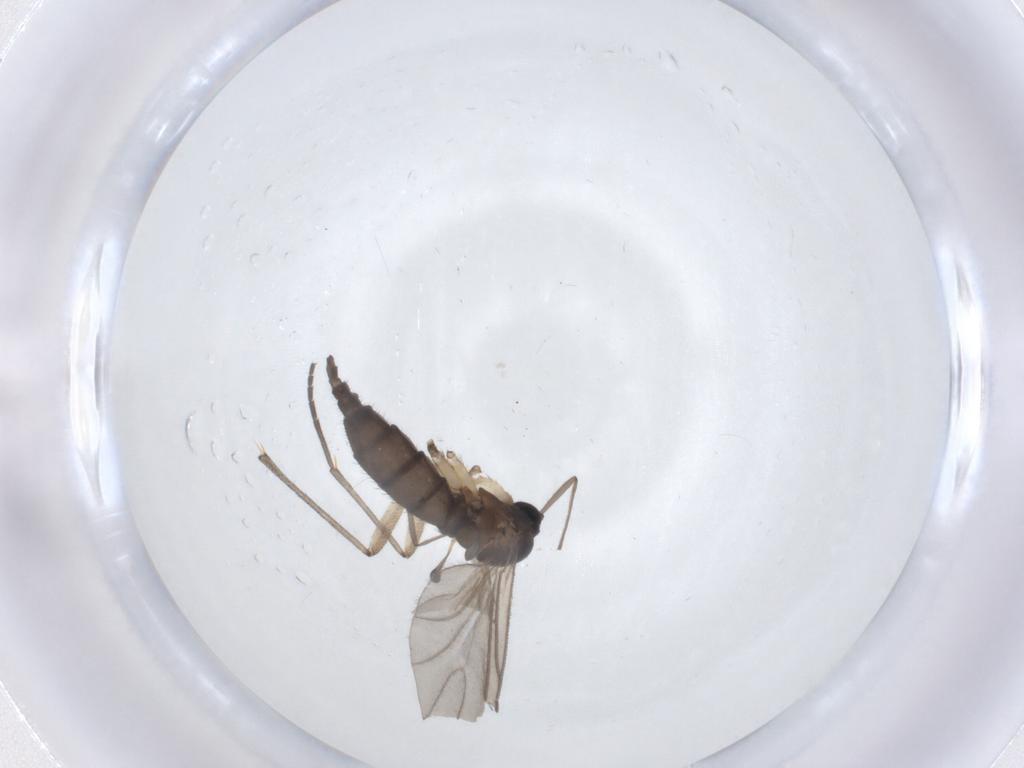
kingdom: Animalia
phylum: Arthropoda
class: Insecta
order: Diptera
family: Sciaridae
